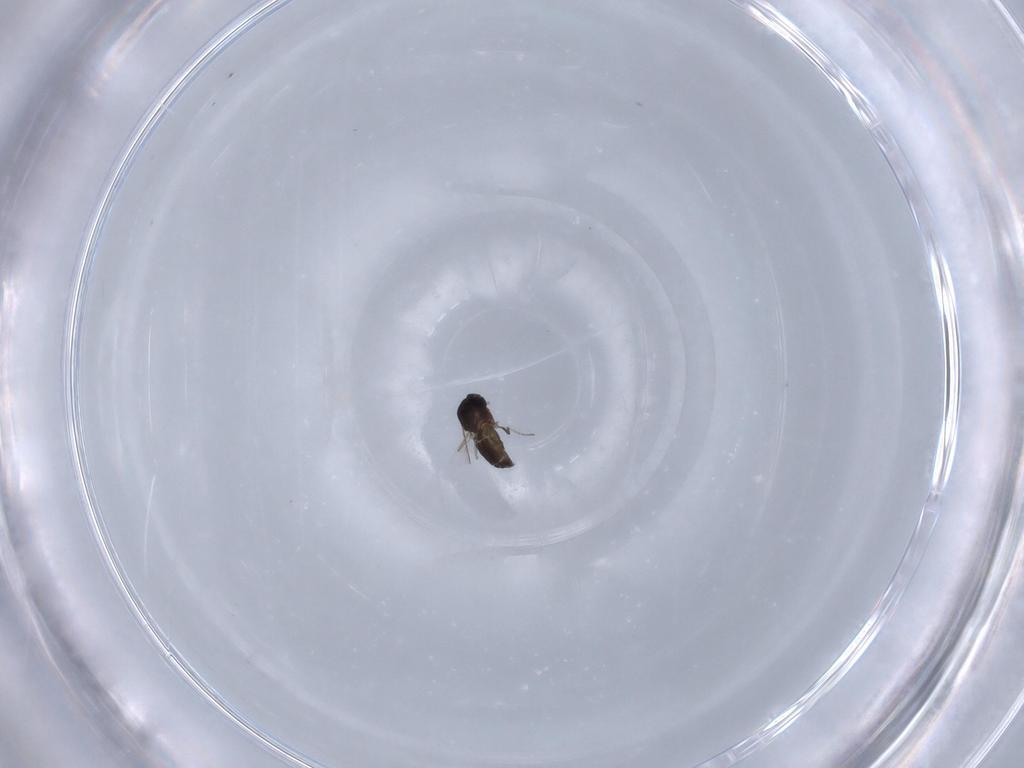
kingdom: Animalia
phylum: Arthropoda
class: Insecta
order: Diptera
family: Ceratopogonidae
